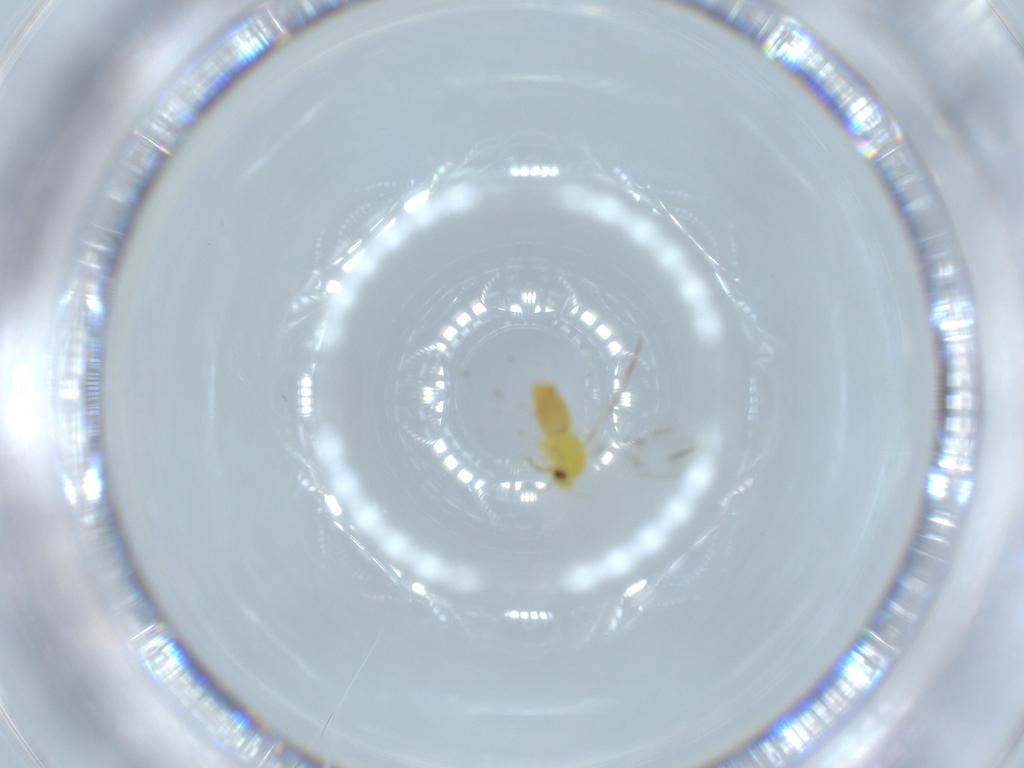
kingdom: Animalia
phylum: Arthropoda
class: Insecta
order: Hemiptera
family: Aleyrodidae
